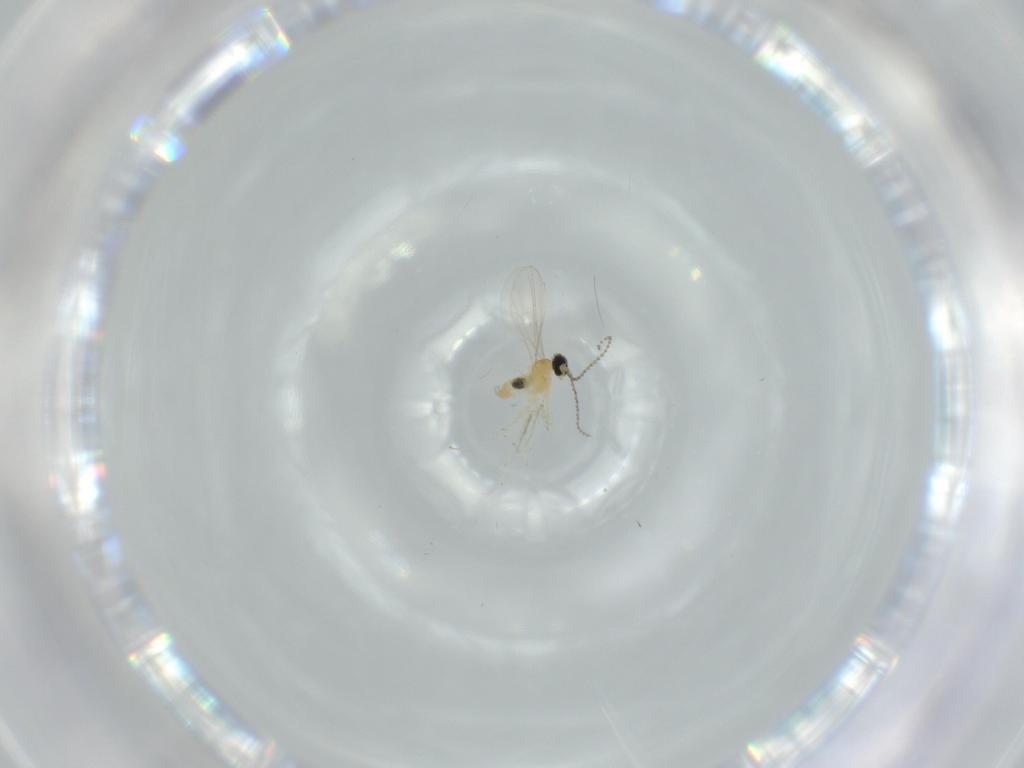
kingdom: Animalia
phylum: Arthropoda
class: Insecta
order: Diptera
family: Cecidomyiidae
